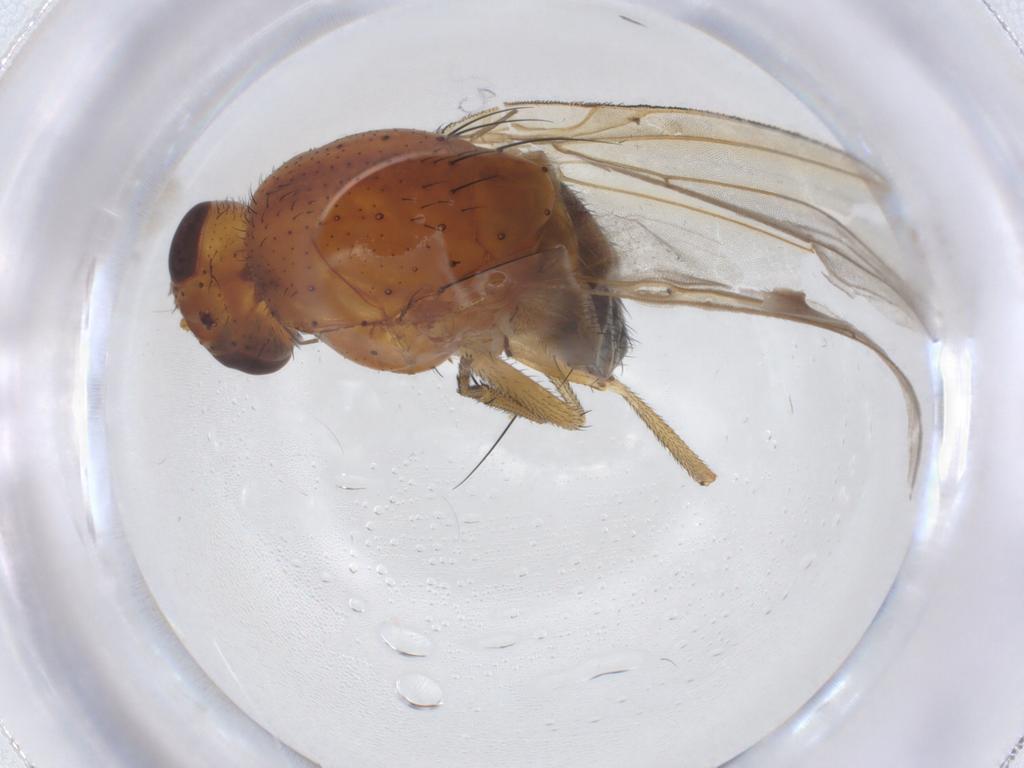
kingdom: Animalia
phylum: Arthropoda
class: Insecta
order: Diptera
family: Chironomidae
